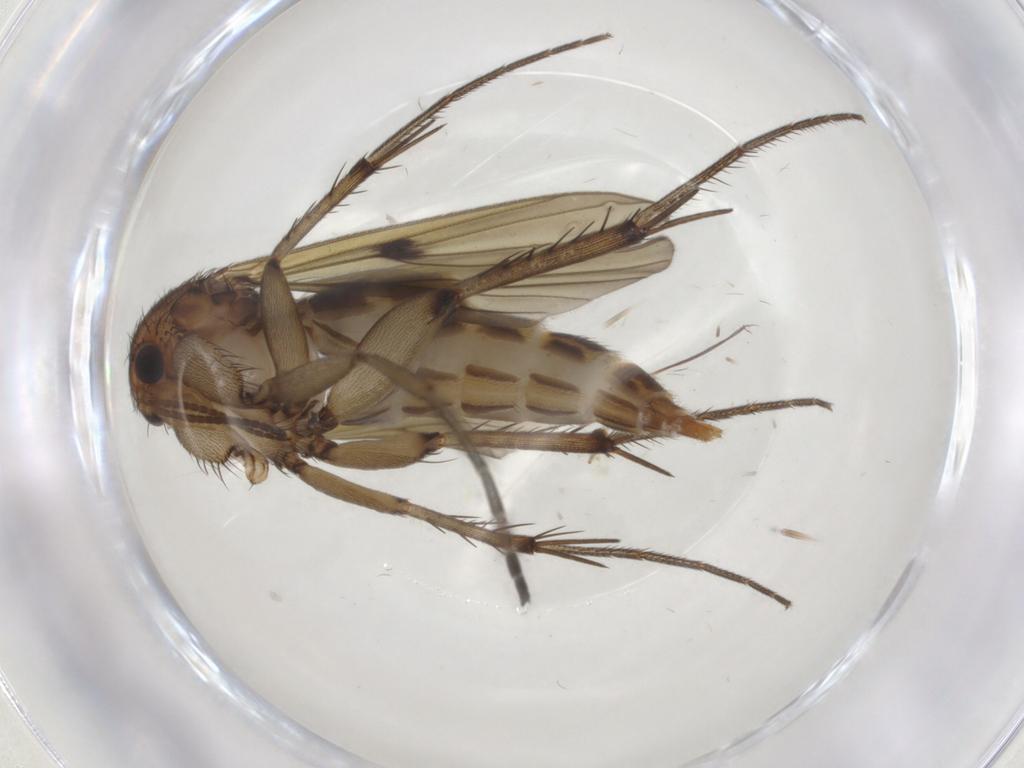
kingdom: Animalia
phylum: Arthropoda
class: Insecta
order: Diptera
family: Mycetophilidae
